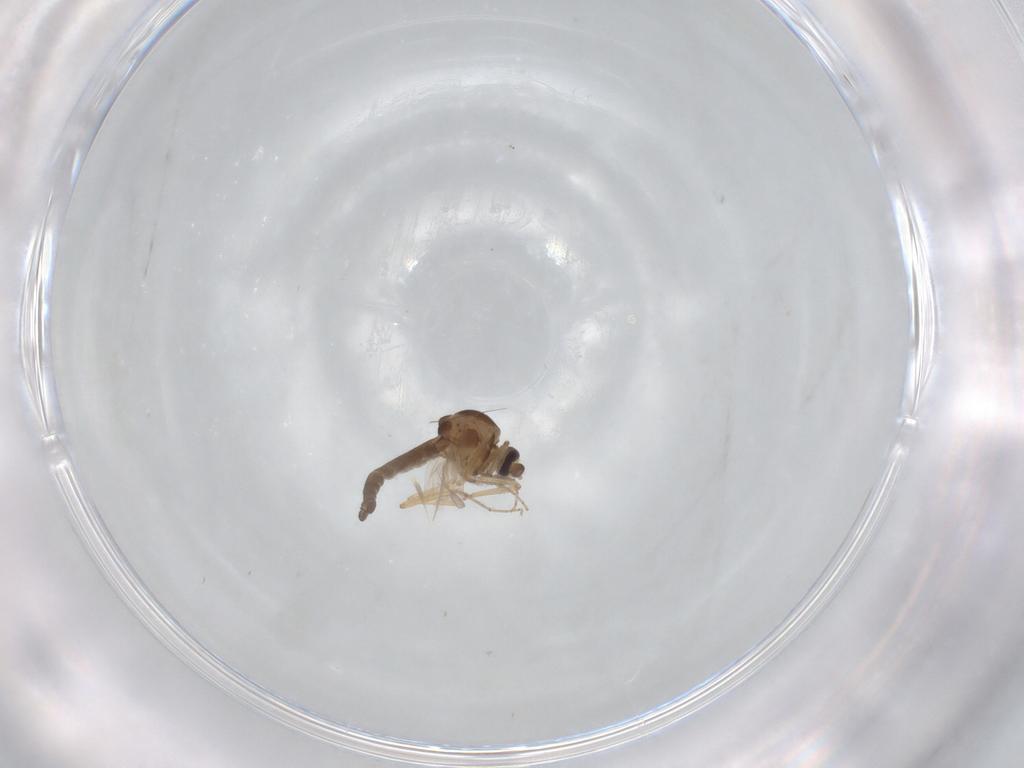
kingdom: Animalia
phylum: Arthropoda
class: Insecta
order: Diptera
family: Ceratopogonidae
